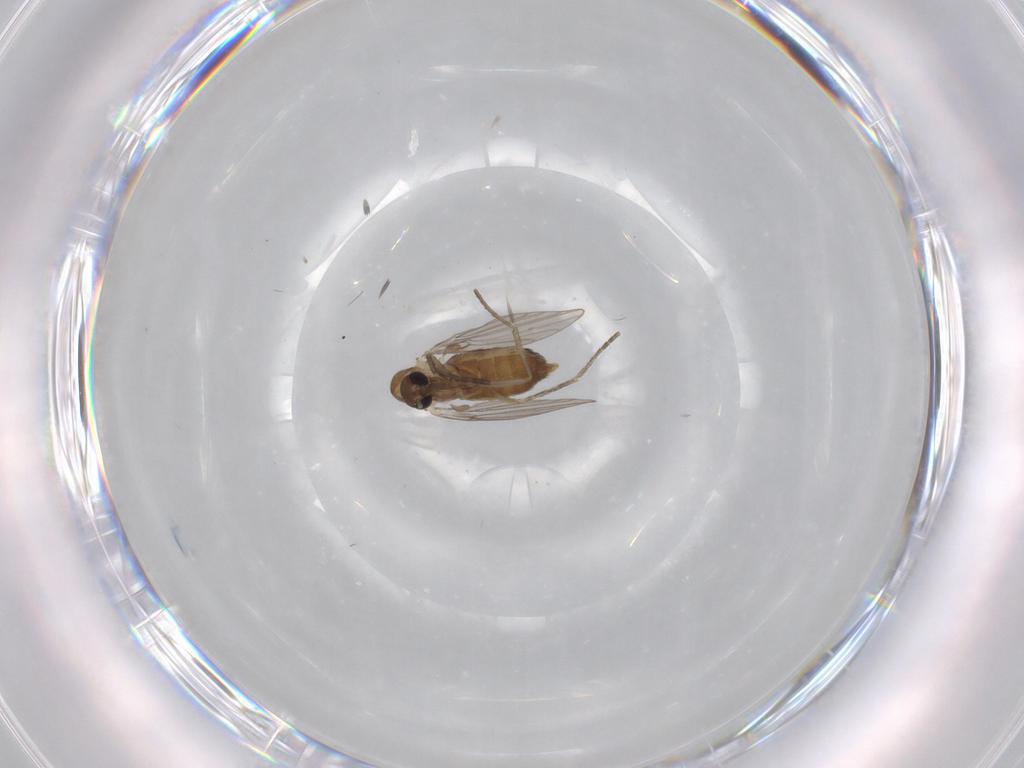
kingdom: Animalia
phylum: Arthropoda
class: Insecta
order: Diptera
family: Psychodidae
